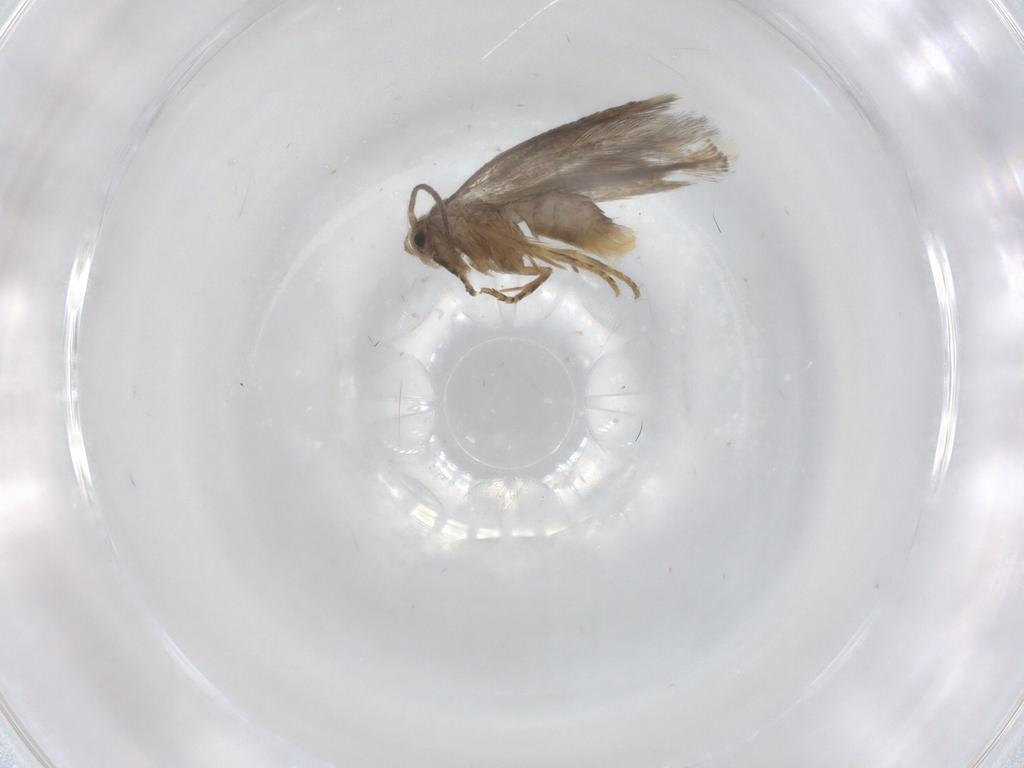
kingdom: Animalia
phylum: Arthropoda
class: Insecta
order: Lepidoptera
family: Elachistidae
